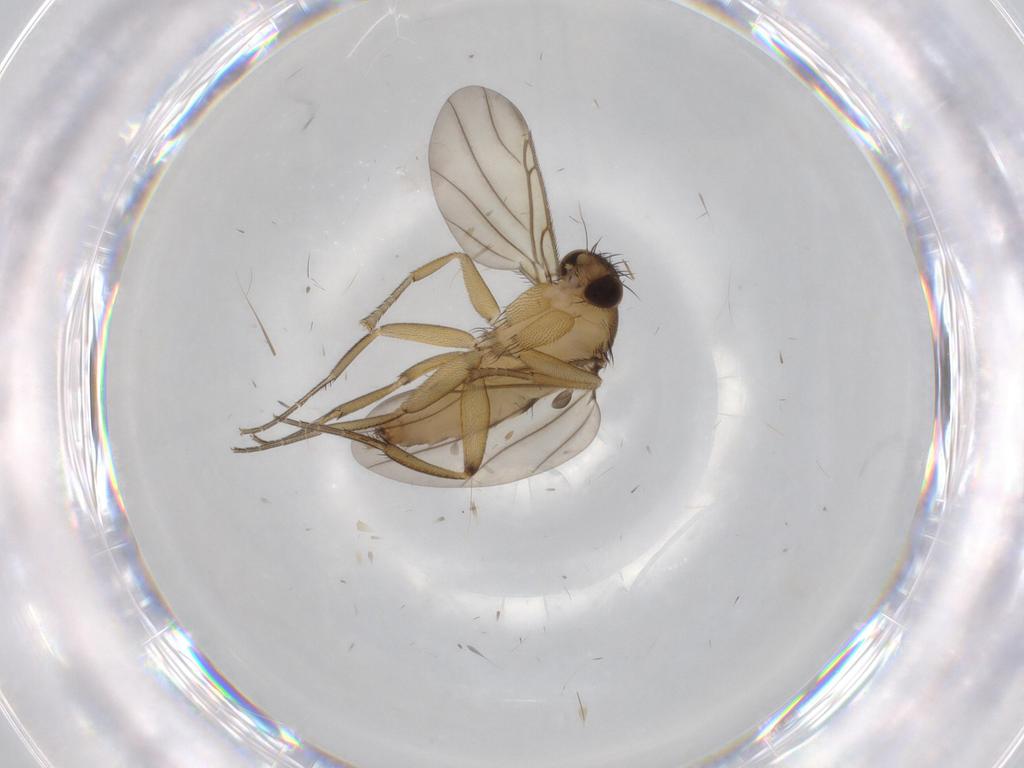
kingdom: Animalia
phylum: Arthropoda
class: Insecta
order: Diptera
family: Phoridae
